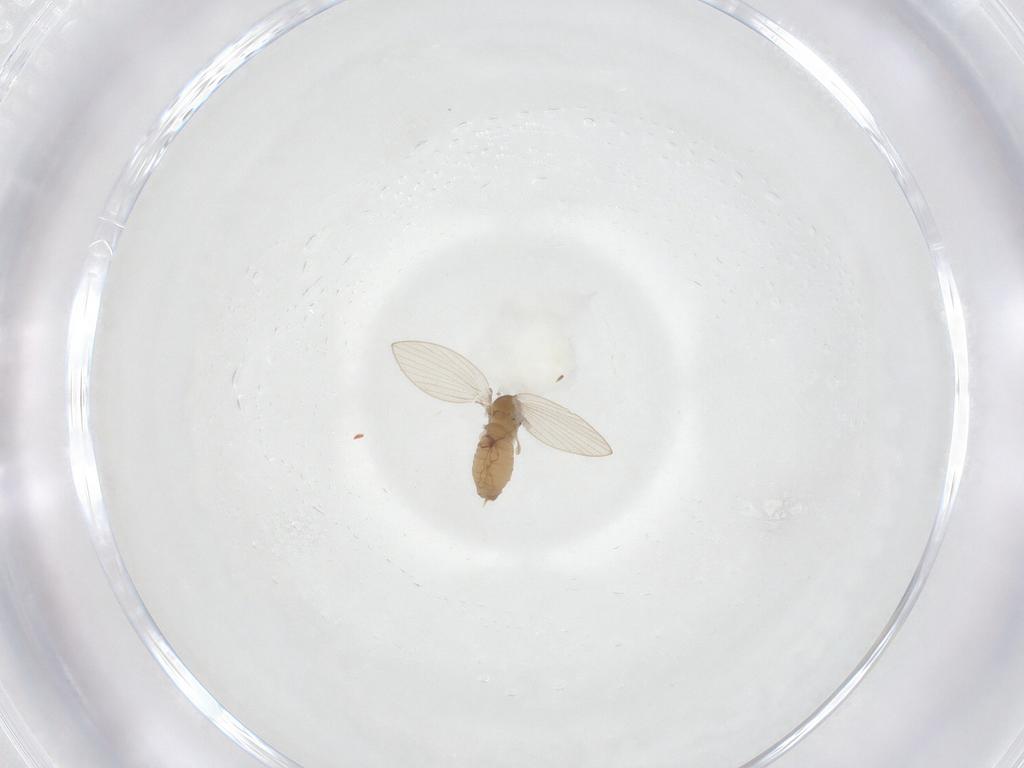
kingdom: Animalia
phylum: Arthropoda
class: Insecta
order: Diptera
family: Psychodidae
